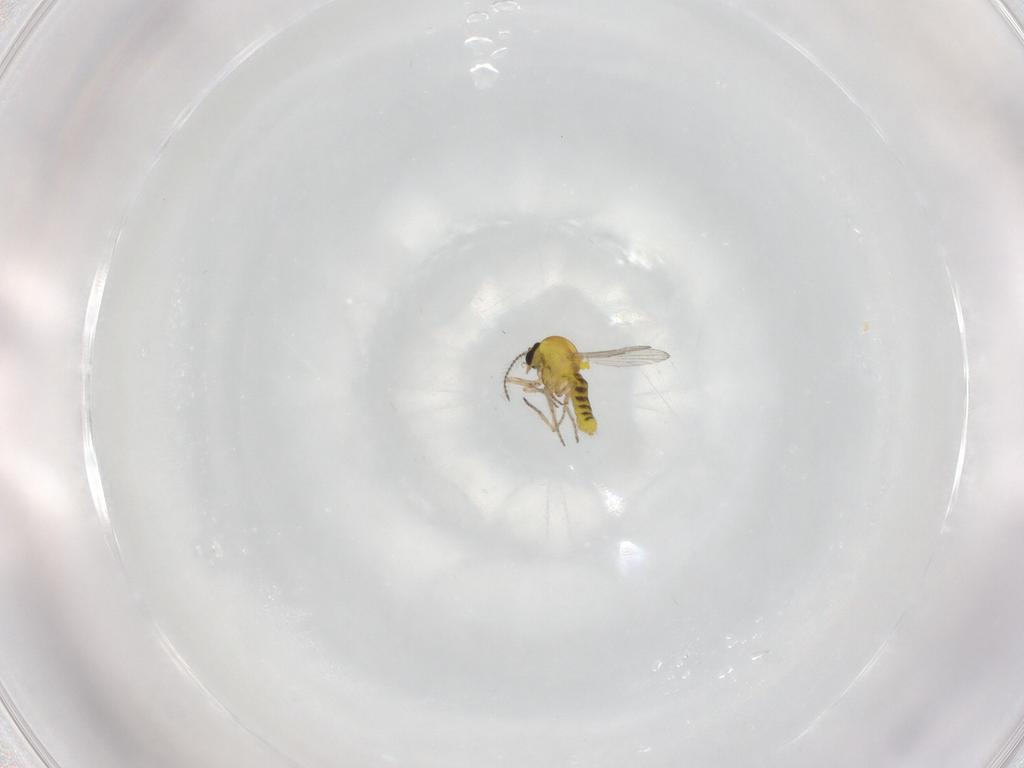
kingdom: Animalia
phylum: Arthropoda
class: Insecta
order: Diptera
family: Ceratopogonidae
